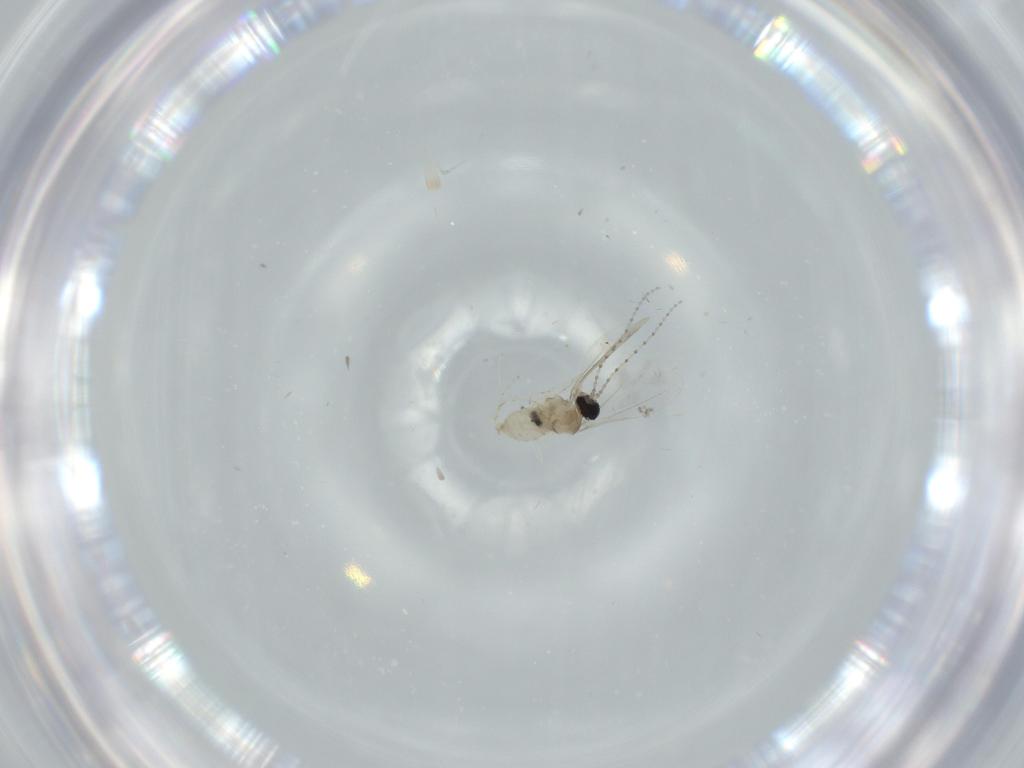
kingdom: Animalia
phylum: Arthropoda
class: Insecta
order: Diptera
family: Cecidomyiidae
